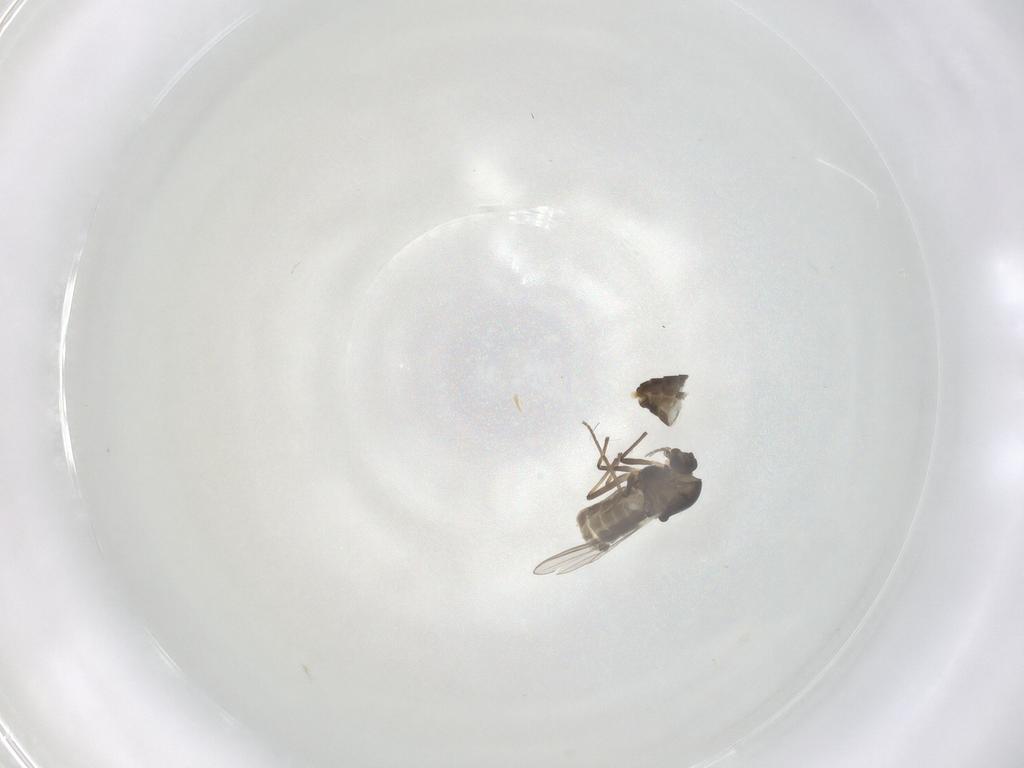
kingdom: Animalia
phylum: Arthropoda
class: Insecta
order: Diptera
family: Chironomidae
